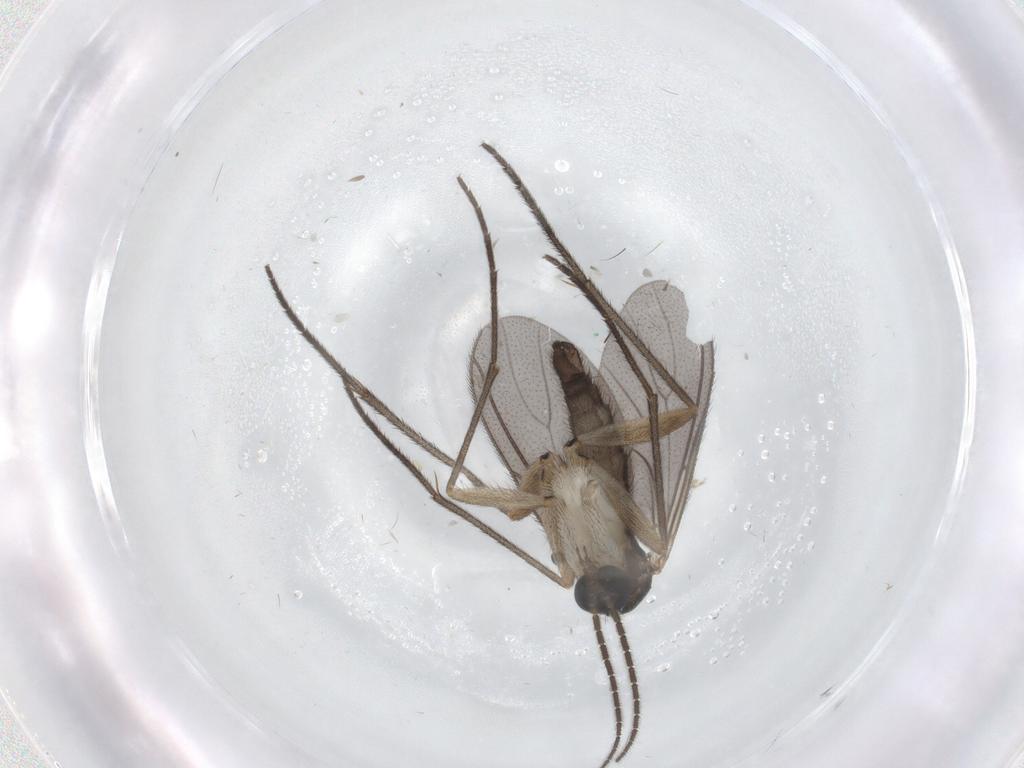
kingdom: Animalia
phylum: Arthropoda
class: Insecta
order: Diptera
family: Sciaridae
